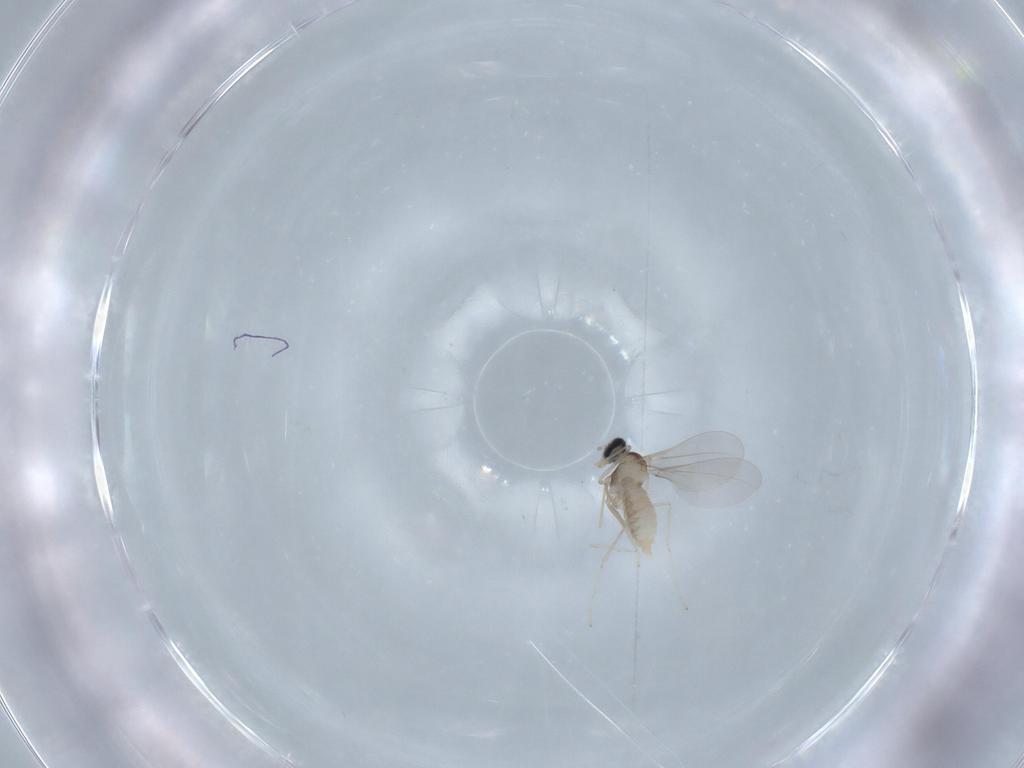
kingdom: Animalia
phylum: Arthropoda
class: Insecta
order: Diptera
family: Cecidomyiidae
